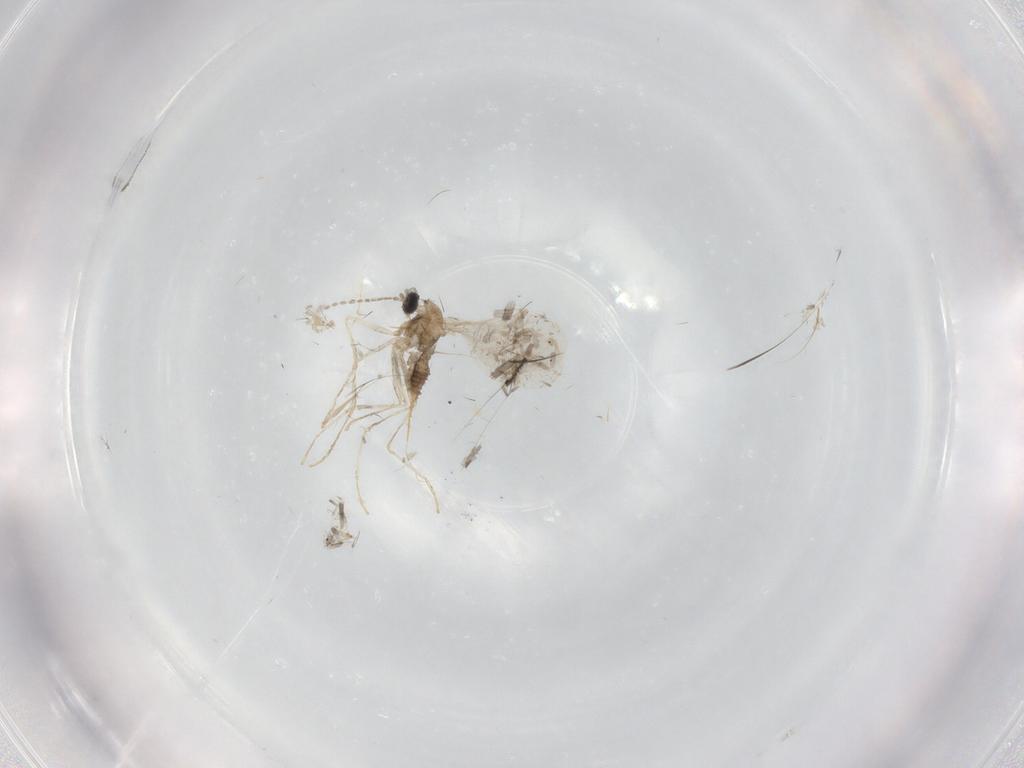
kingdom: Animalia
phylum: Arthropoda
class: Insecta
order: Diptera
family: Cecidomyiidae
